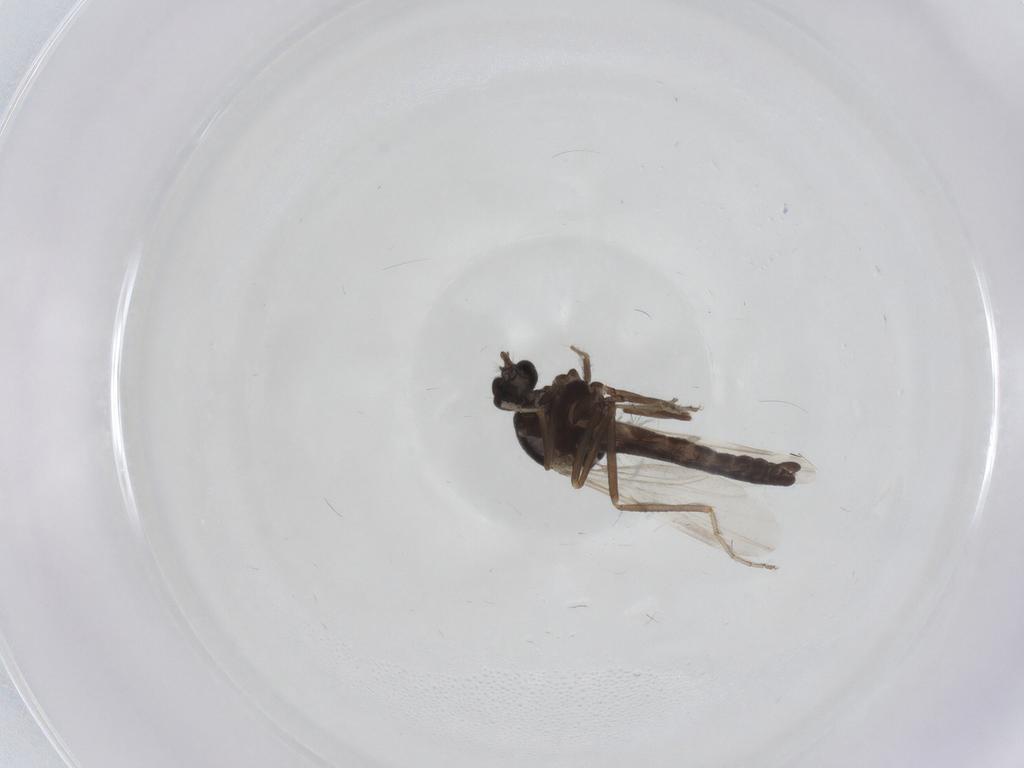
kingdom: Animalia
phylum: Arthropoda
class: Insecta
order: Diptera
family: Ceratopogonidae
